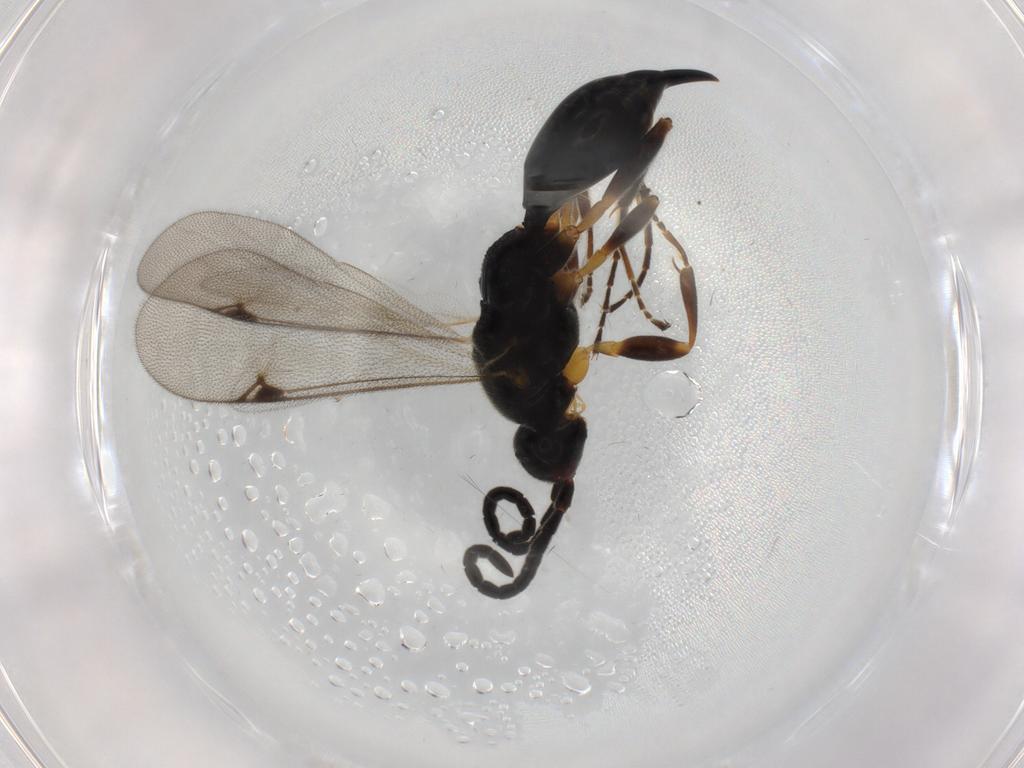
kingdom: Animalia
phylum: Arthropoda
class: Insecta
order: Hymenoptera
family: Proctotrupidae
